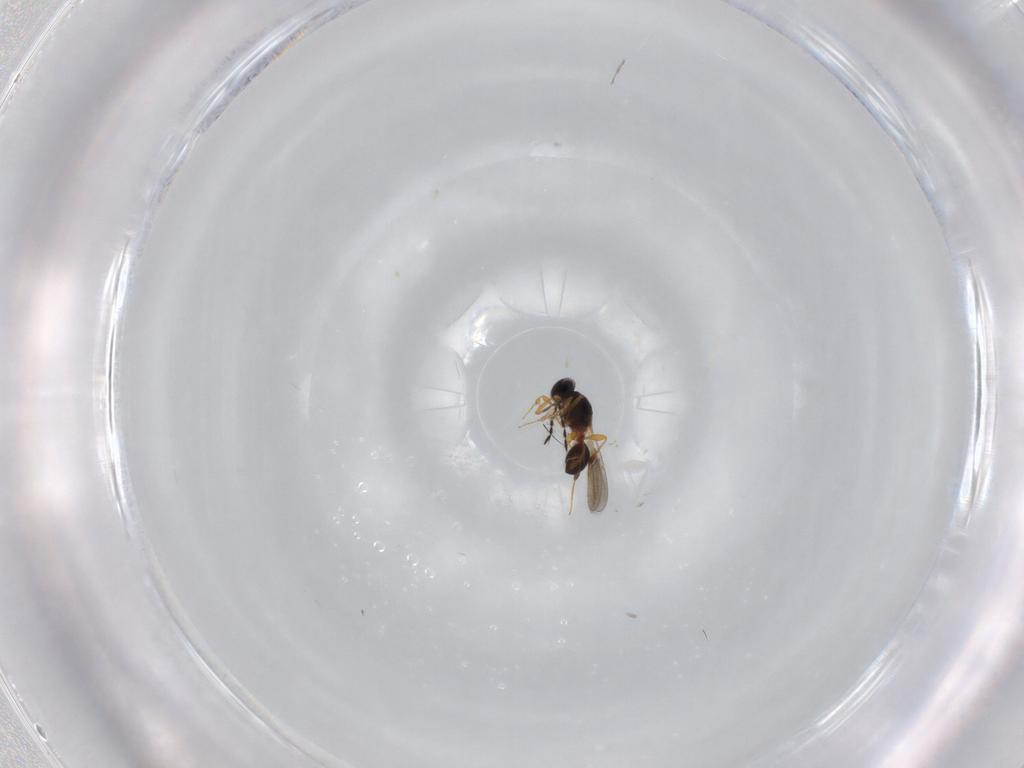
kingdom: Animalia
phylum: Arthropoda
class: Insecta
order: Hymenoptera
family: Platygastridae
